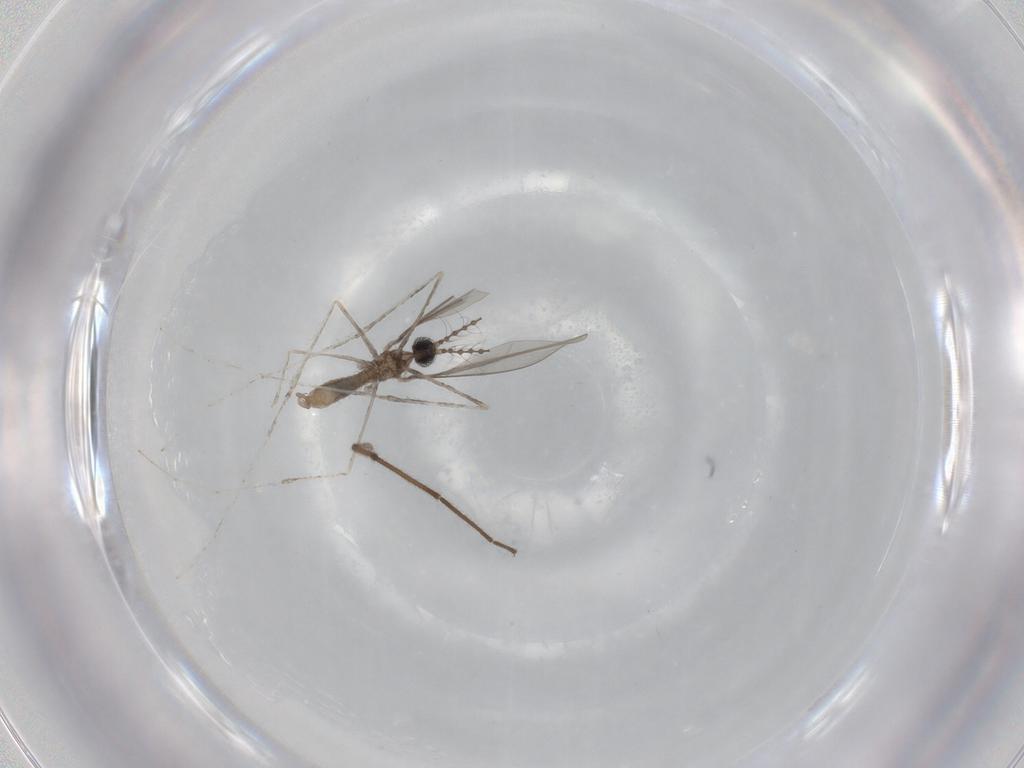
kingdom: Animalia
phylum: Arthropoda
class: Insecta
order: Diptera
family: Cecidomyiidae
